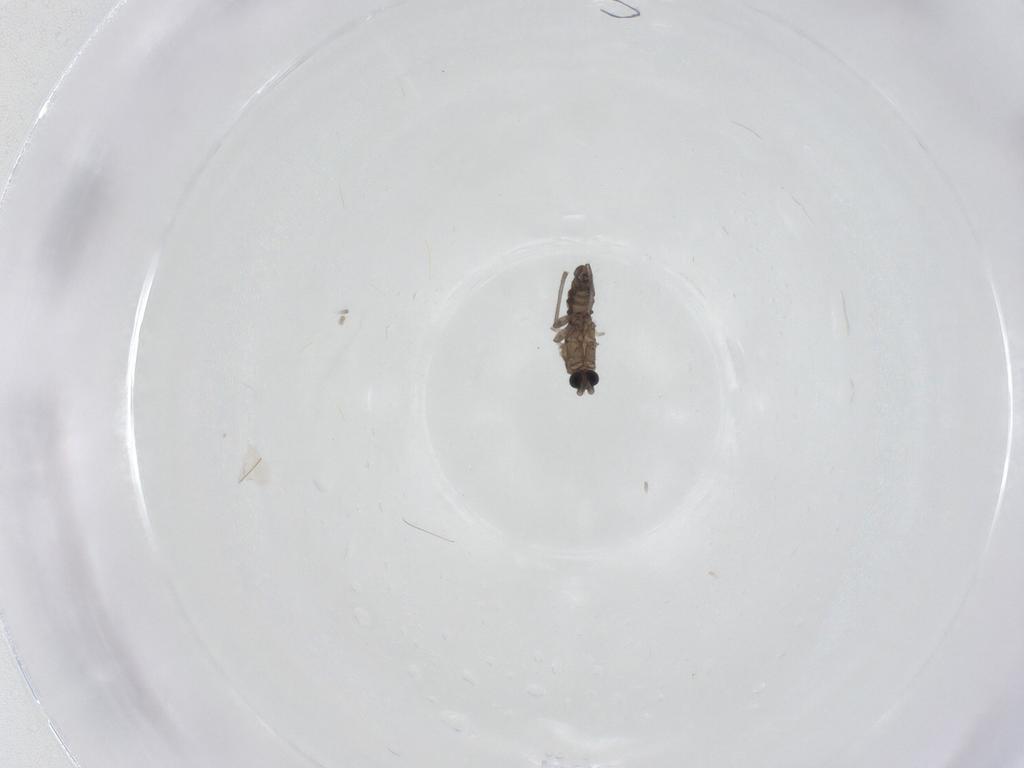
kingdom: Animalia
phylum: Arthropoda
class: Insecta
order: Diptera
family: Sciaridae
